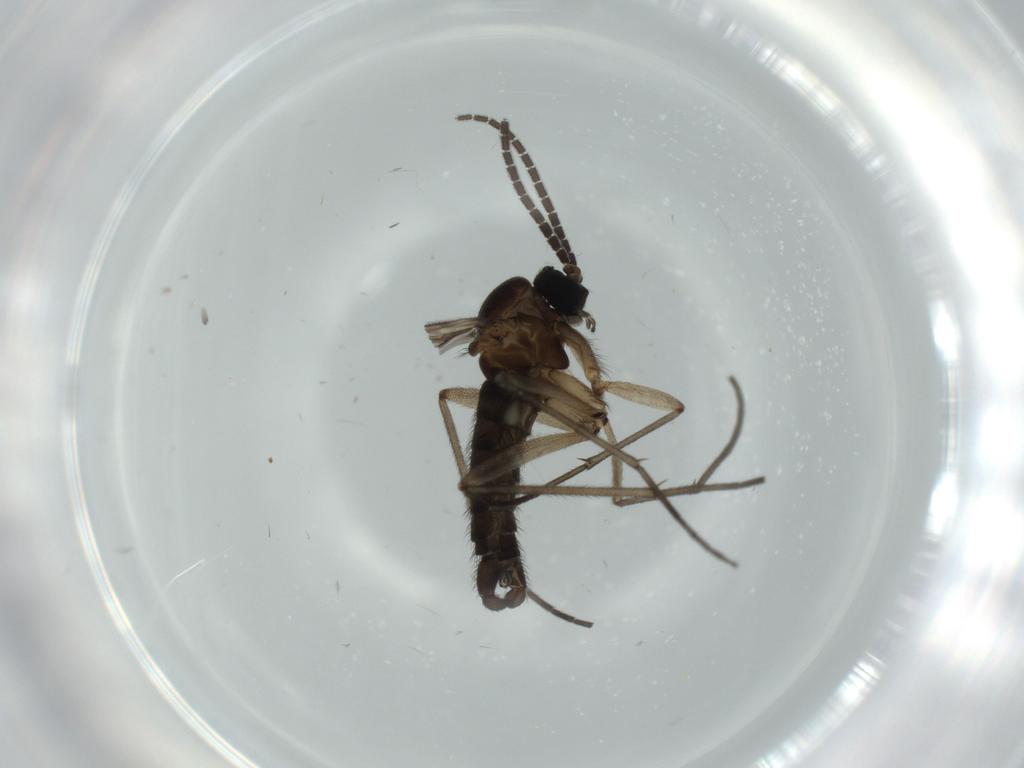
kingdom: Animalia
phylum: Arthropoda
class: Insecta
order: Diptera
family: Sciaridae
